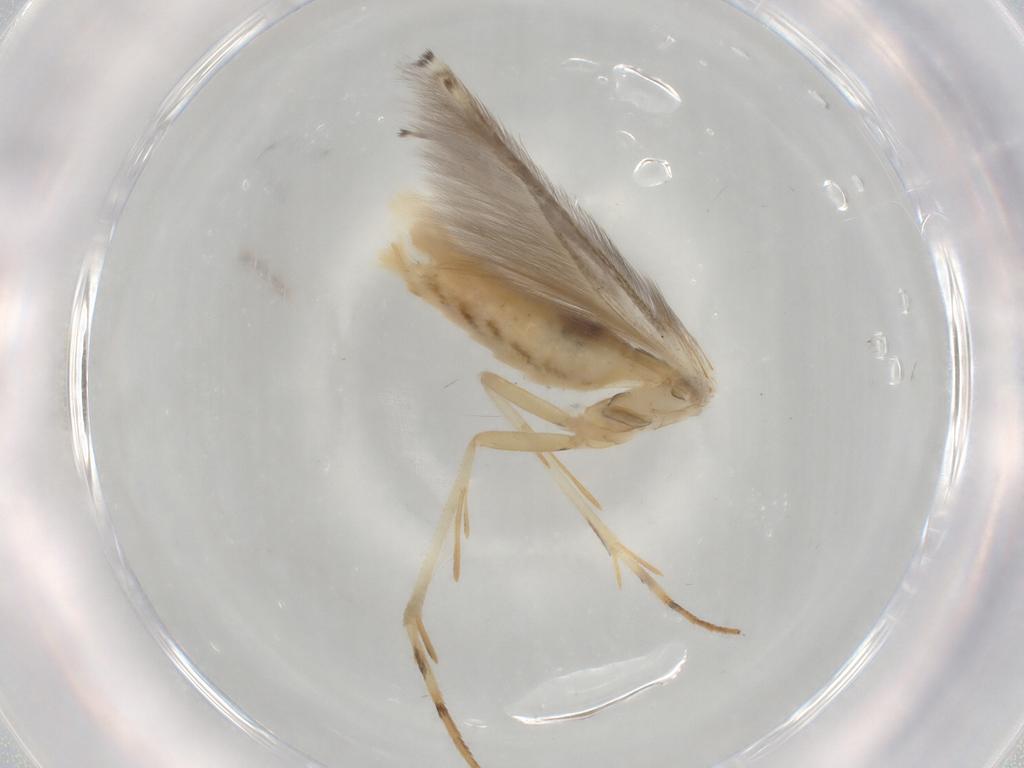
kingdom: Animalia
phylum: Arthropoda
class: Insecta
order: Lepidoptera
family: Gelechiidae
